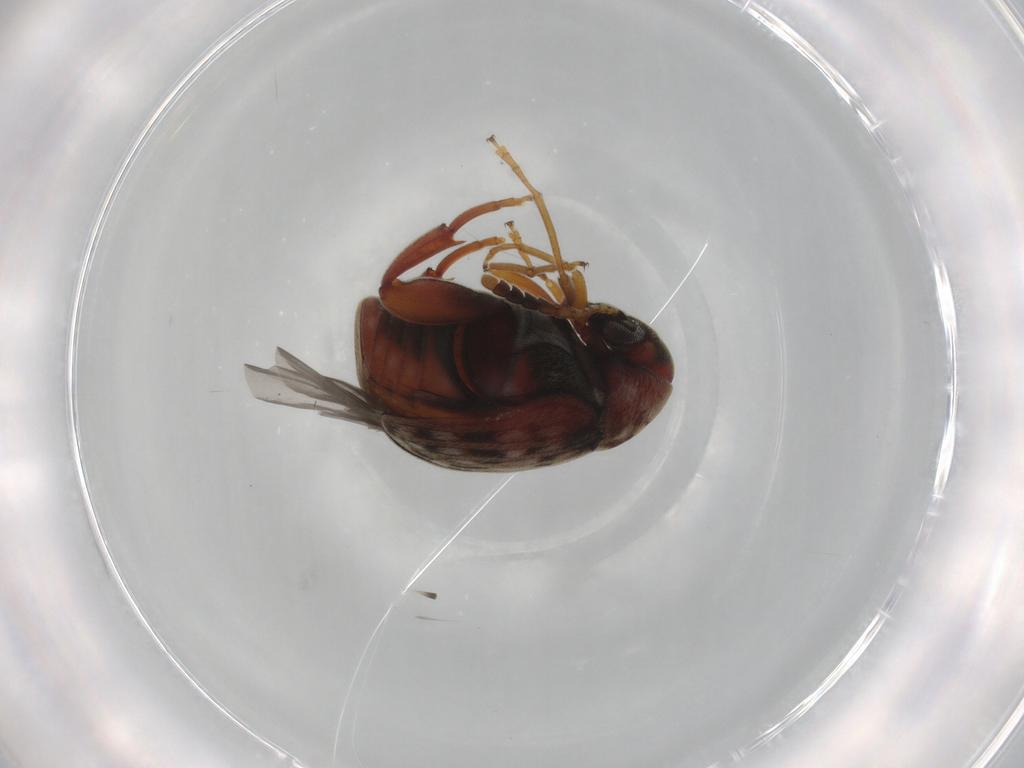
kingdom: Animalia
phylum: Arthropoda
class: Insecta
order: Coleoptera
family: Chrysomelidae
